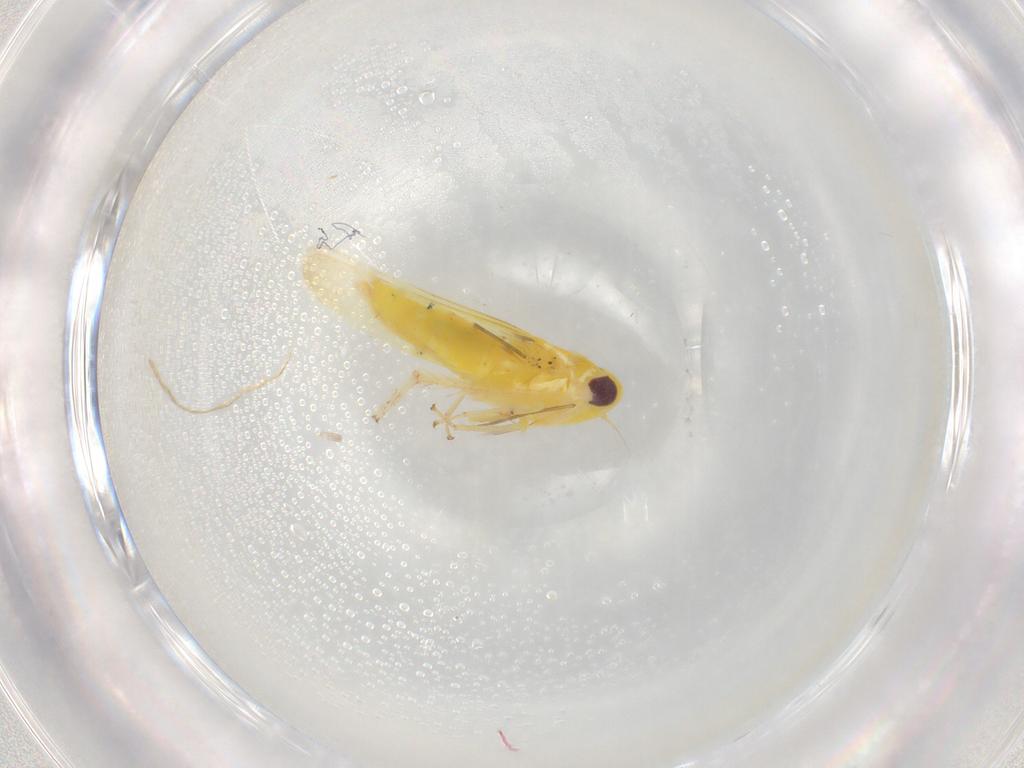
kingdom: Animalia
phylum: Arthropoda
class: Insecta
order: Hemiptera
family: Cicadellidae
